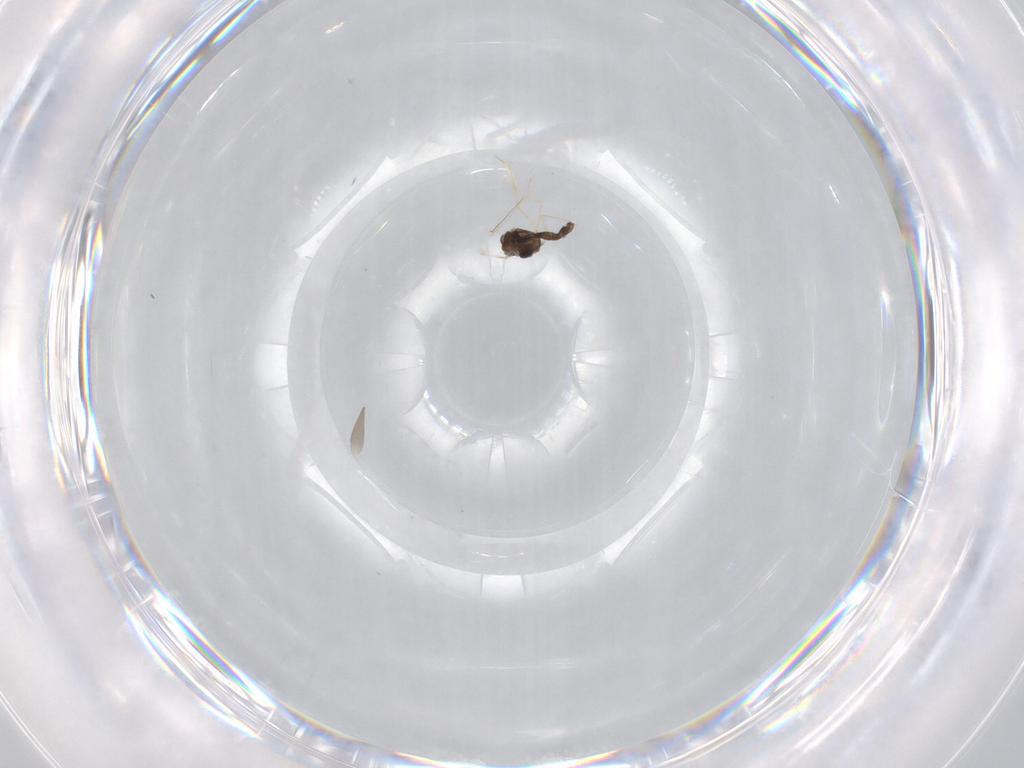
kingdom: Animalia
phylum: Arthropoda
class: Insecta
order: Diptera
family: Chironomidae
